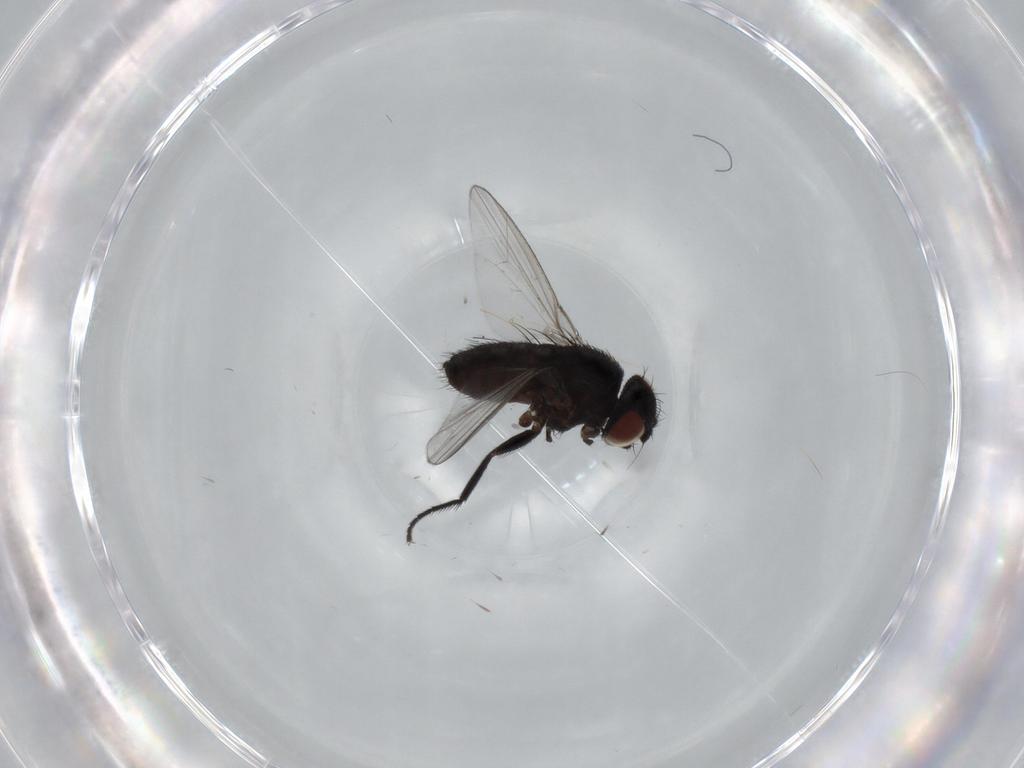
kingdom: Animalia
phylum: Arthropoda
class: Insecta
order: Diptera
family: Milichiidae
